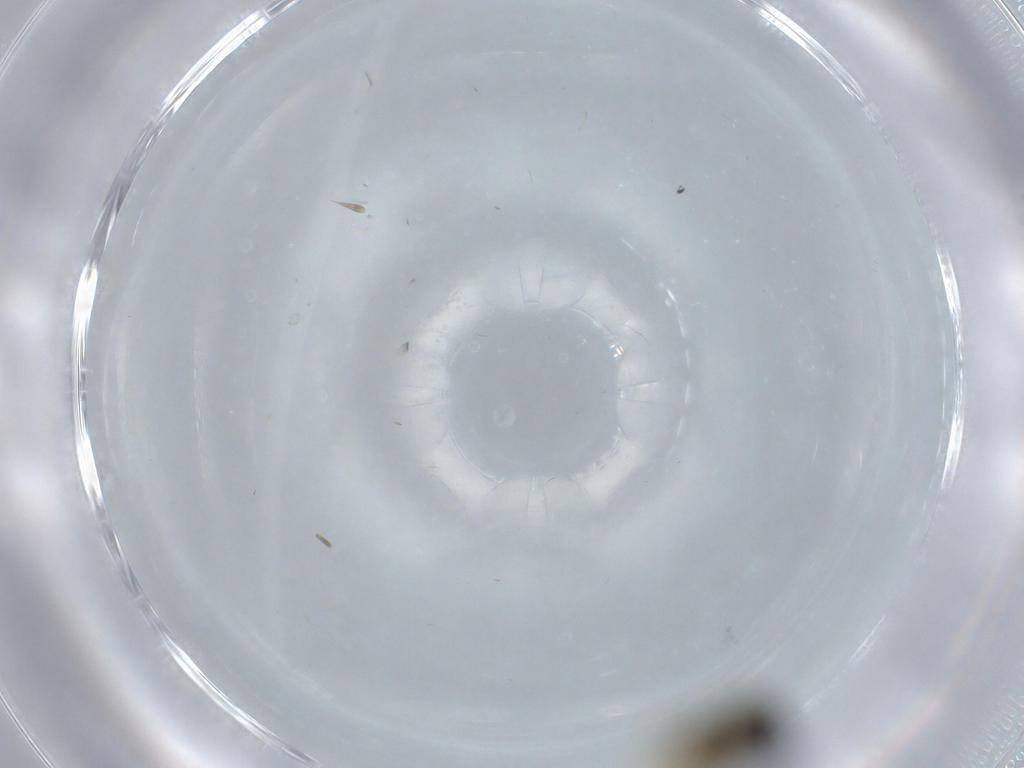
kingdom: Animalia
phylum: Arthropoda
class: Insecta
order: Diptera
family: Dolichopodidae
